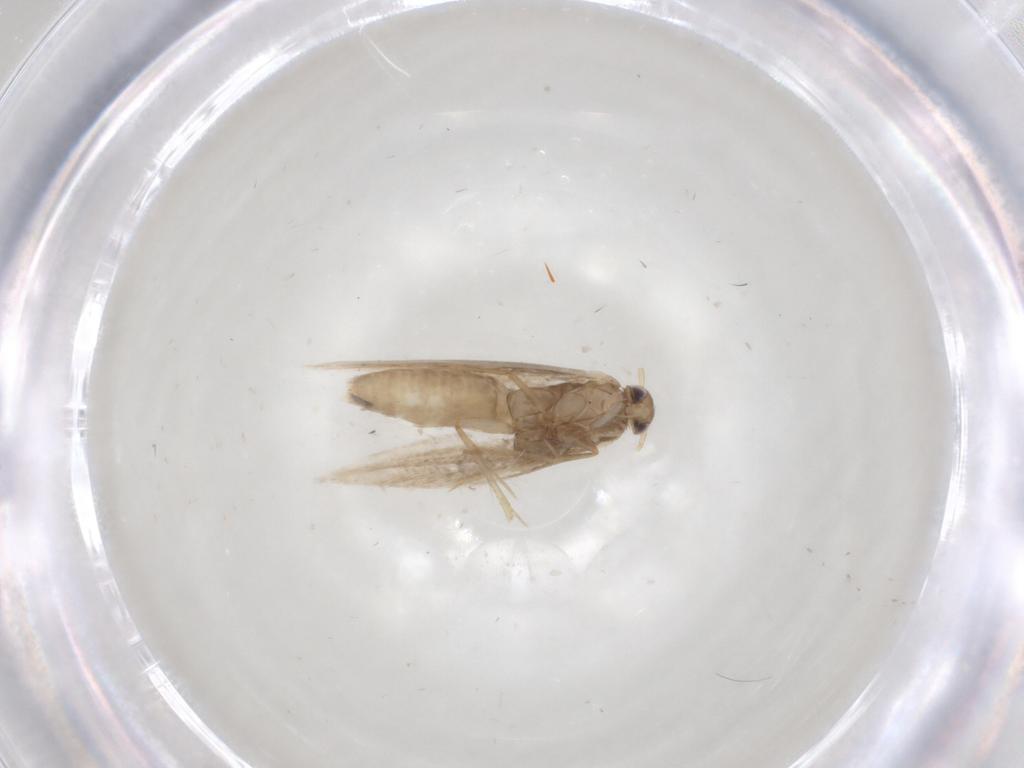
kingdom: Animalia
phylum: Arthropoda
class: Insecta
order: Lepidoptera
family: Gracillariidae
